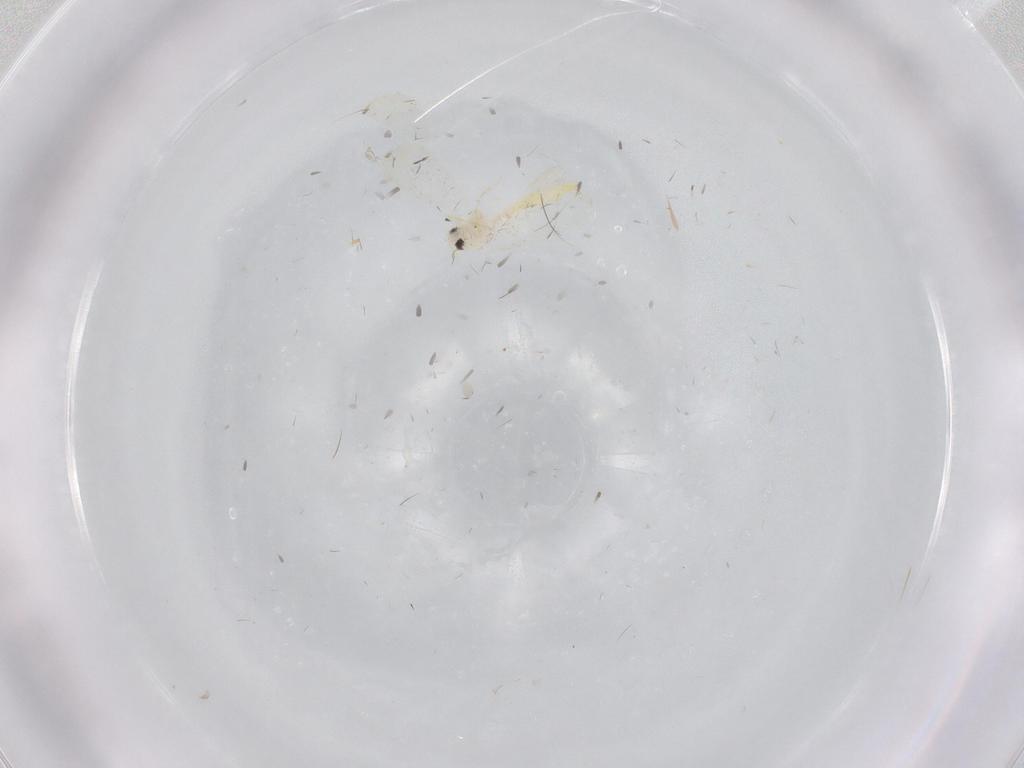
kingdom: Animalia
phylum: Arthropoda
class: Insecta
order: Hemiptera
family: Aleyrodidae
